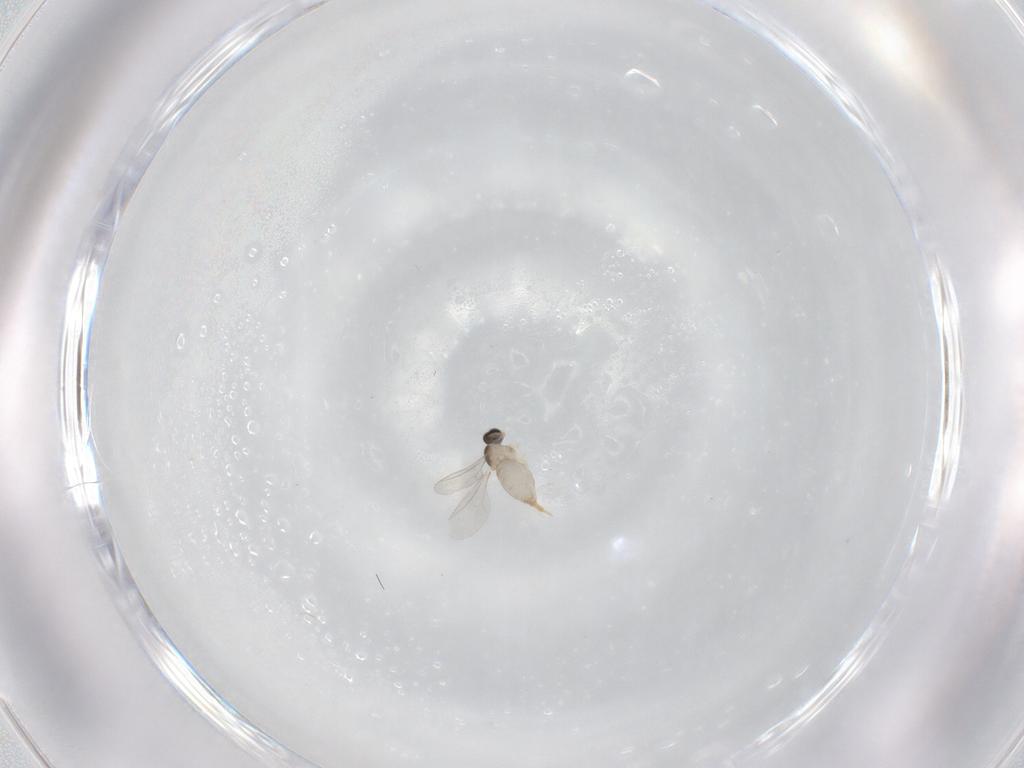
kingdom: Animalia
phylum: Arthropoda
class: Insecta
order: Diptera
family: Cecidomyiidae
